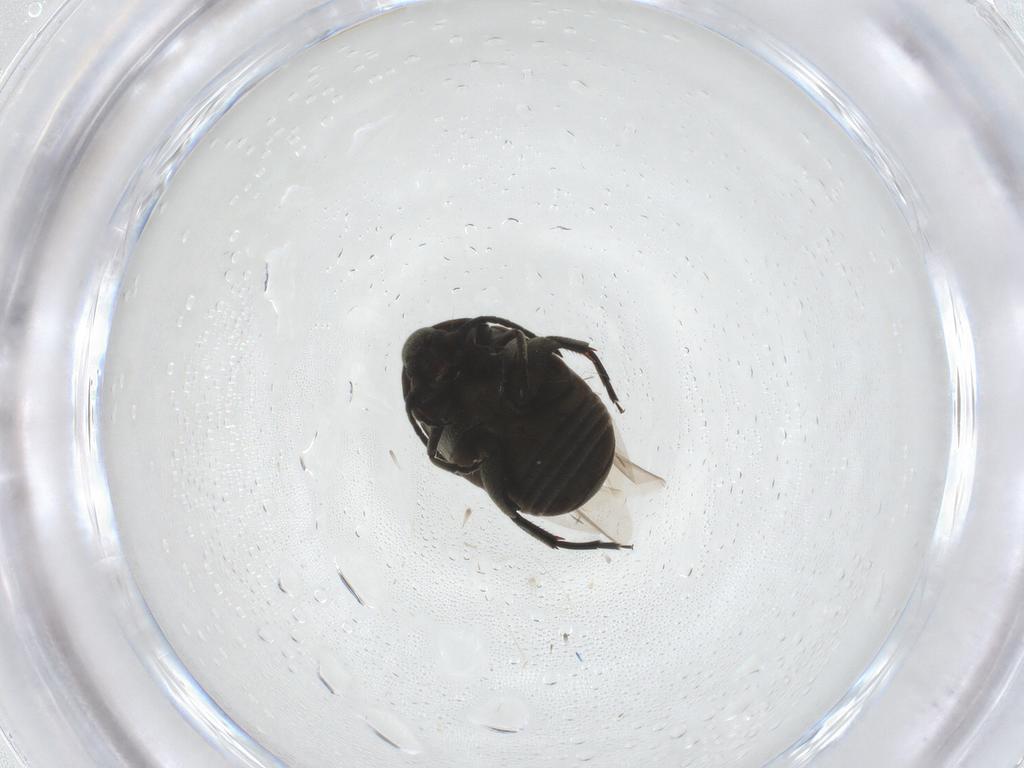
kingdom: Animalia
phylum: Arthropoda
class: Insecta
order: Coleoptera
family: Chrysomelidae
